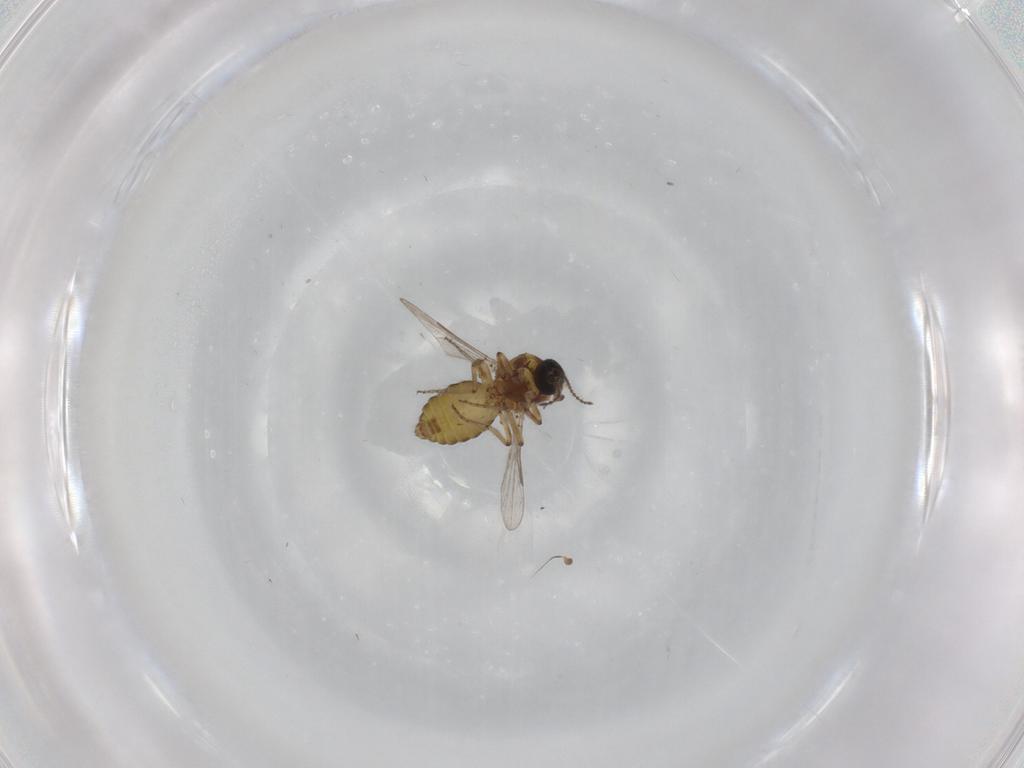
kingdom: Animalia
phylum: Arthropoda
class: Insecta
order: Diptera
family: Ceratopogonidae
